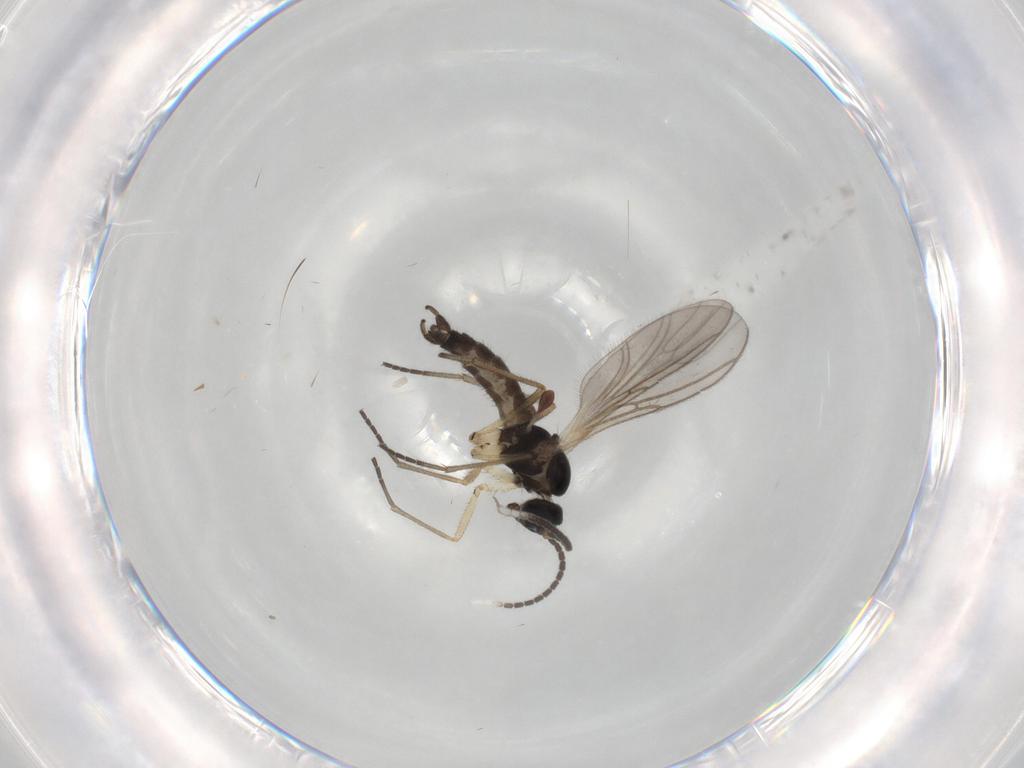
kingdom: Animalia
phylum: Arthropoda
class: Insecta
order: Diptera
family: Sciaridae
